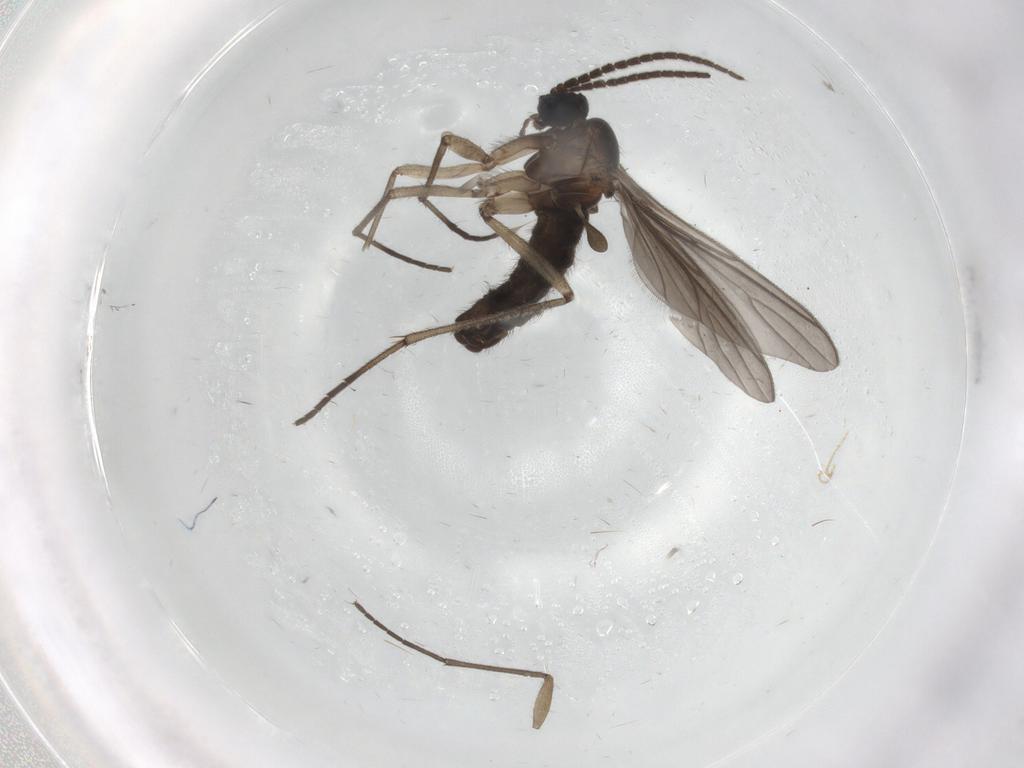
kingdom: Animalia
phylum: Arthropoda
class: Insecta
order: Diptera
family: Sciaridae
